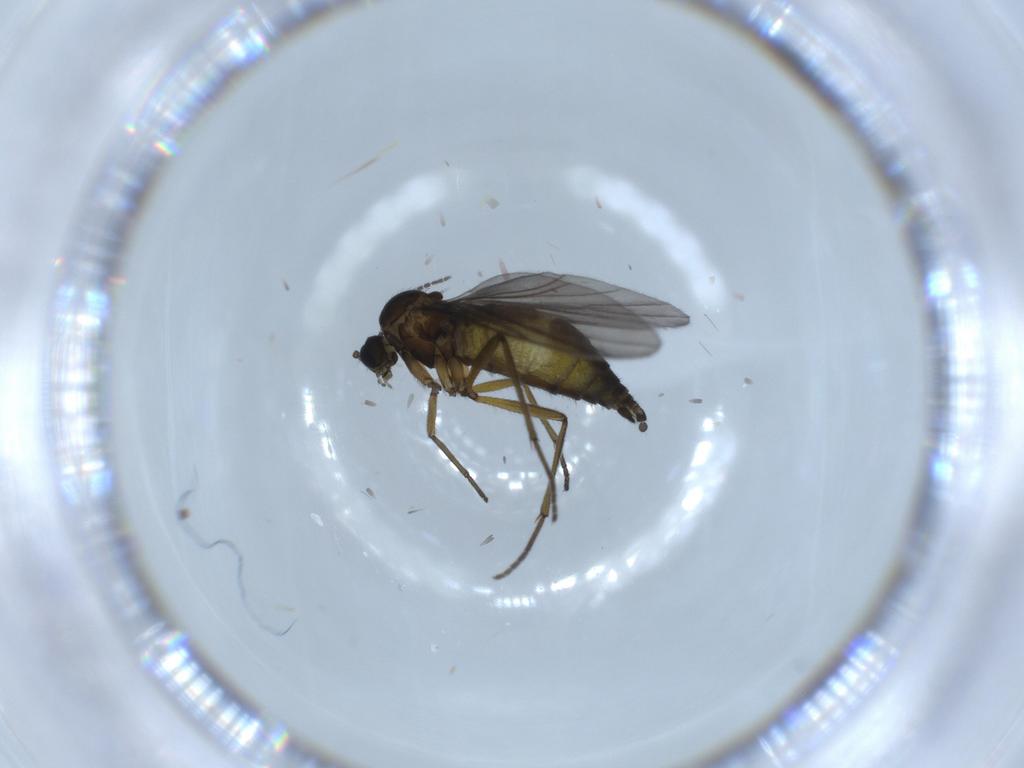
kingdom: Animalia
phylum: Arthropoda
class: Insecta
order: Diptera
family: Sciaridae
